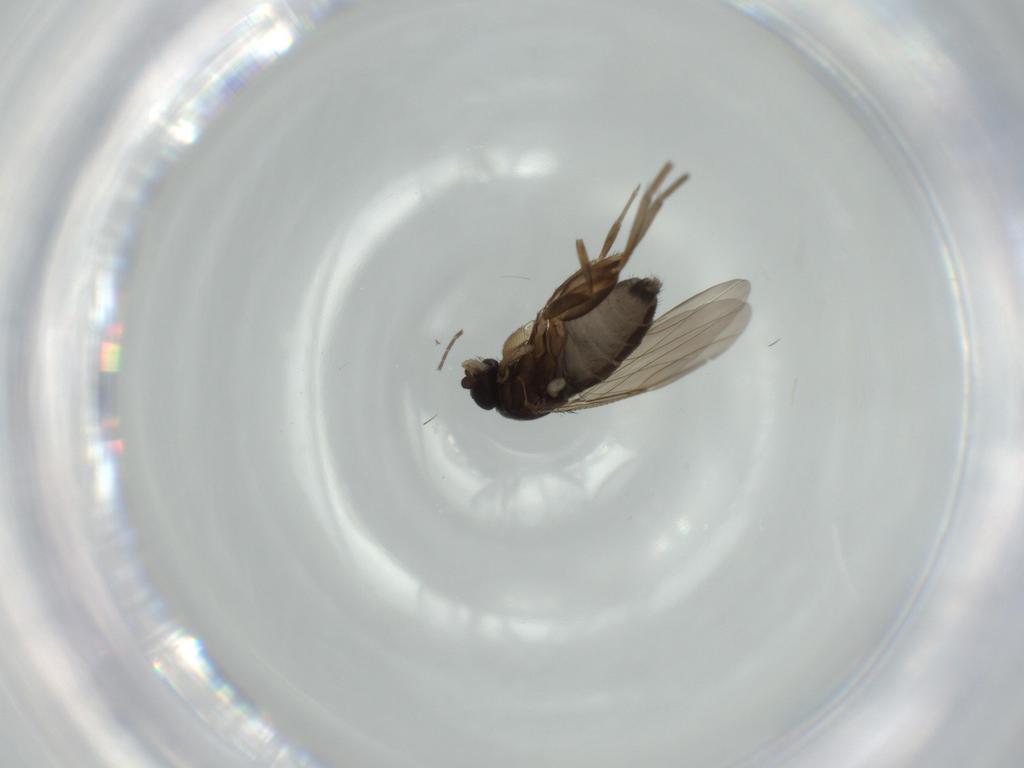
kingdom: Animalia
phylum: Arthropoda
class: Insecta
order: Diptera
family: Phoridae
